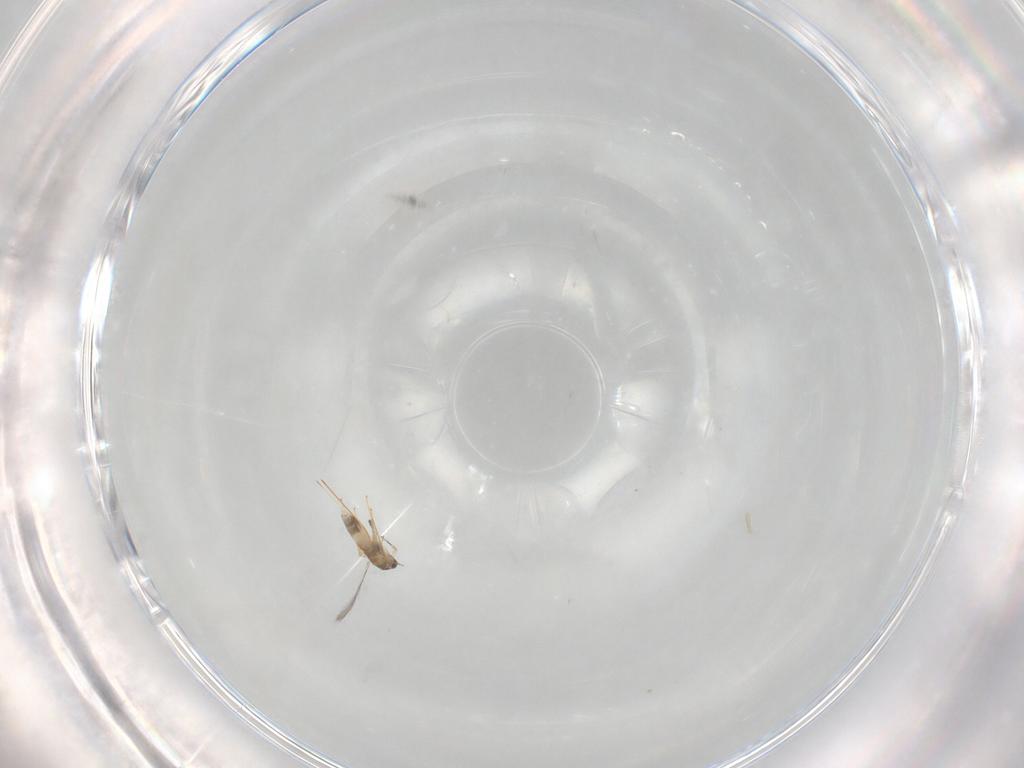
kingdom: Animalia
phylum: Arthropoda
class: Insecta
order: Hymenoptera
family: Mymaridae
